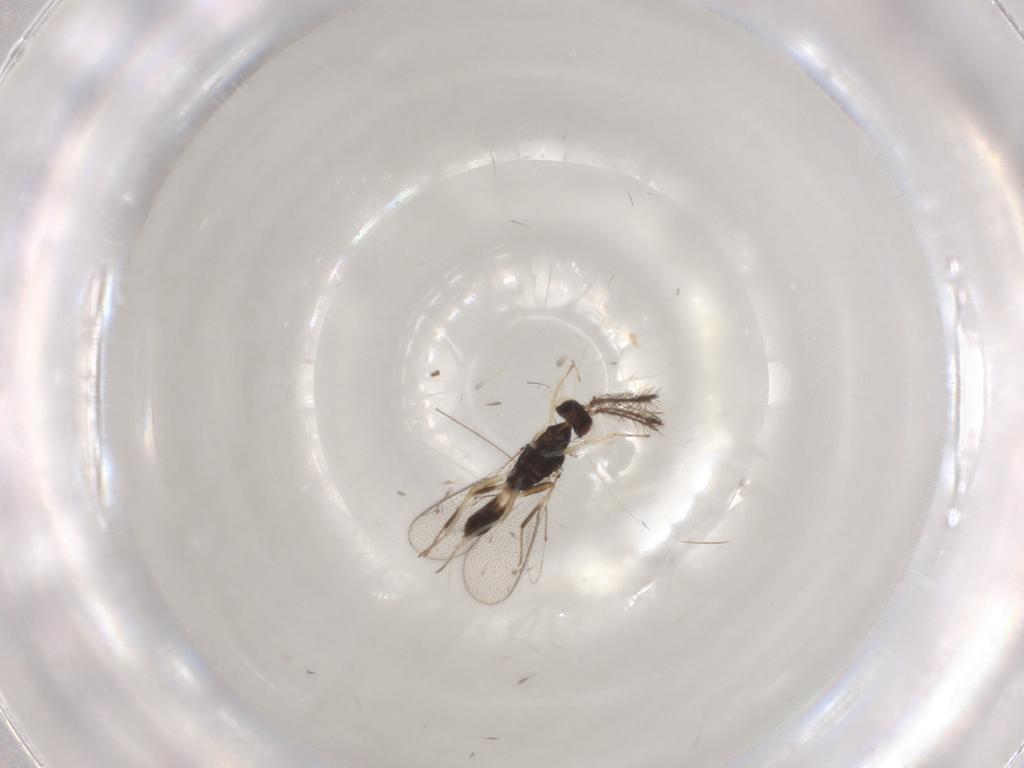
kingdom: Animalia
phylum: Arthropoda
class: Insecta
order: Hymenoptera
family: Eulophidae
